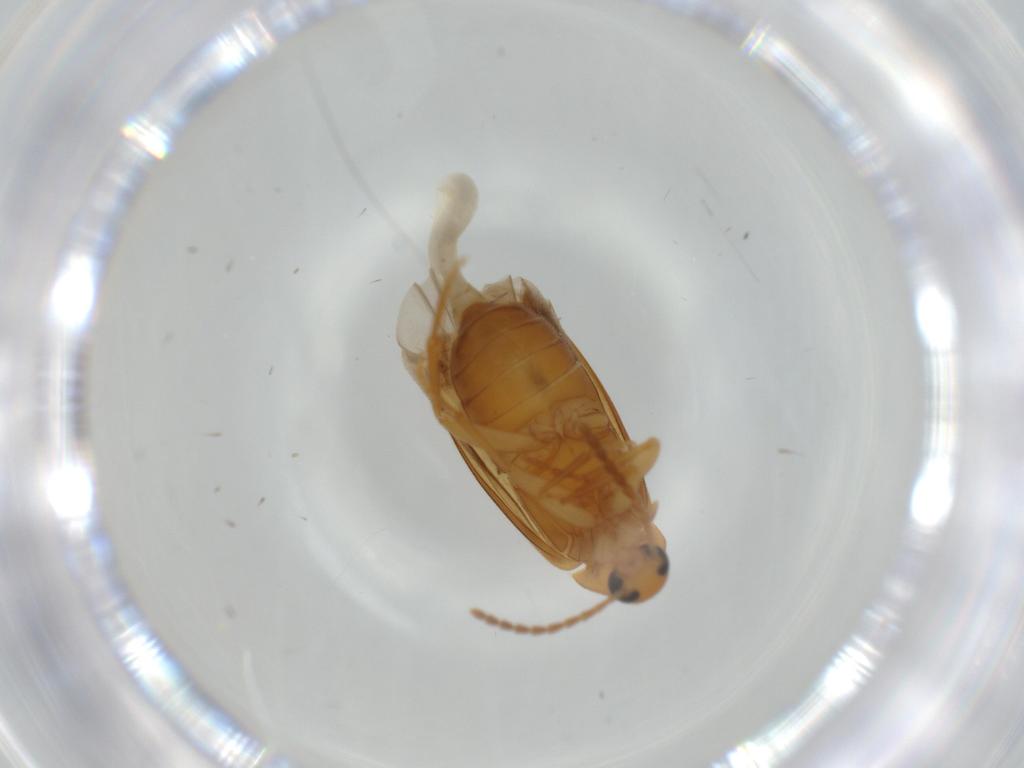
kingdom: Animalia
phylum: Arthropoda
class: Insecta
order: Coleoptera
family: Scraptiidae
